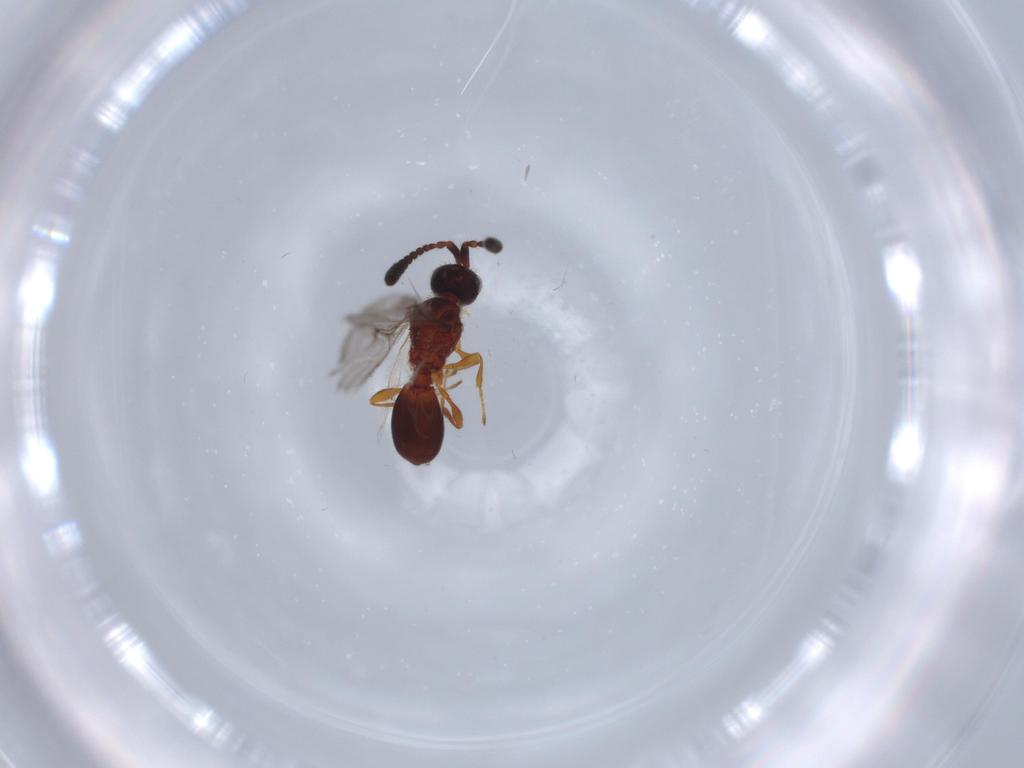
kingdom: Animalia
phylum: Arthropoda
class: Insecta
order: Hymenoptera
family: Diapriidae
